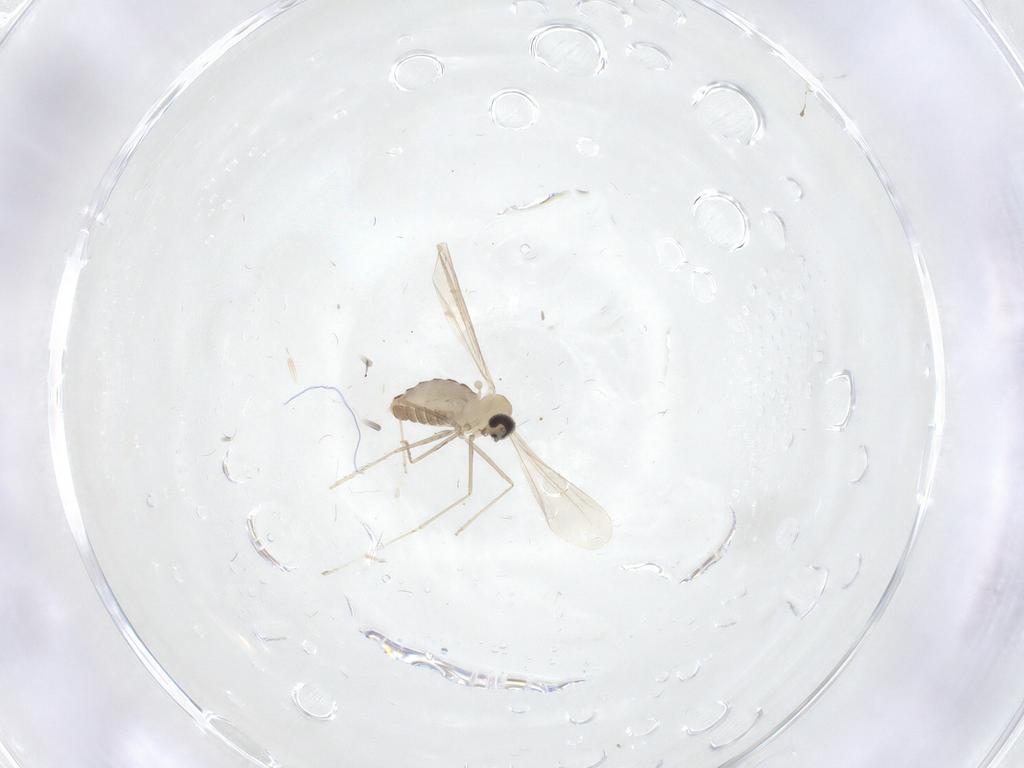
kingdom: Animalia
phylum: Arthropoda
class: Insecta
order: Diptera
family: Cecidomyiidae
